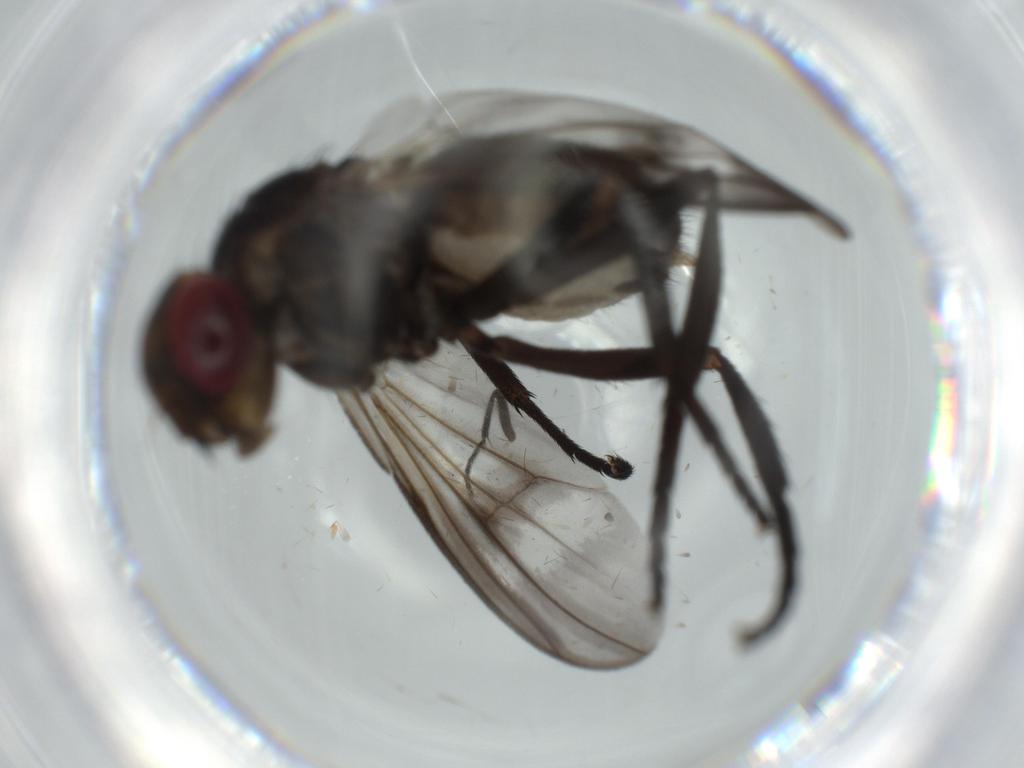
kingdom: Animalia
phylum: Arthropoda
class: Insecta
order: Diptera
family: Calliphoridae
